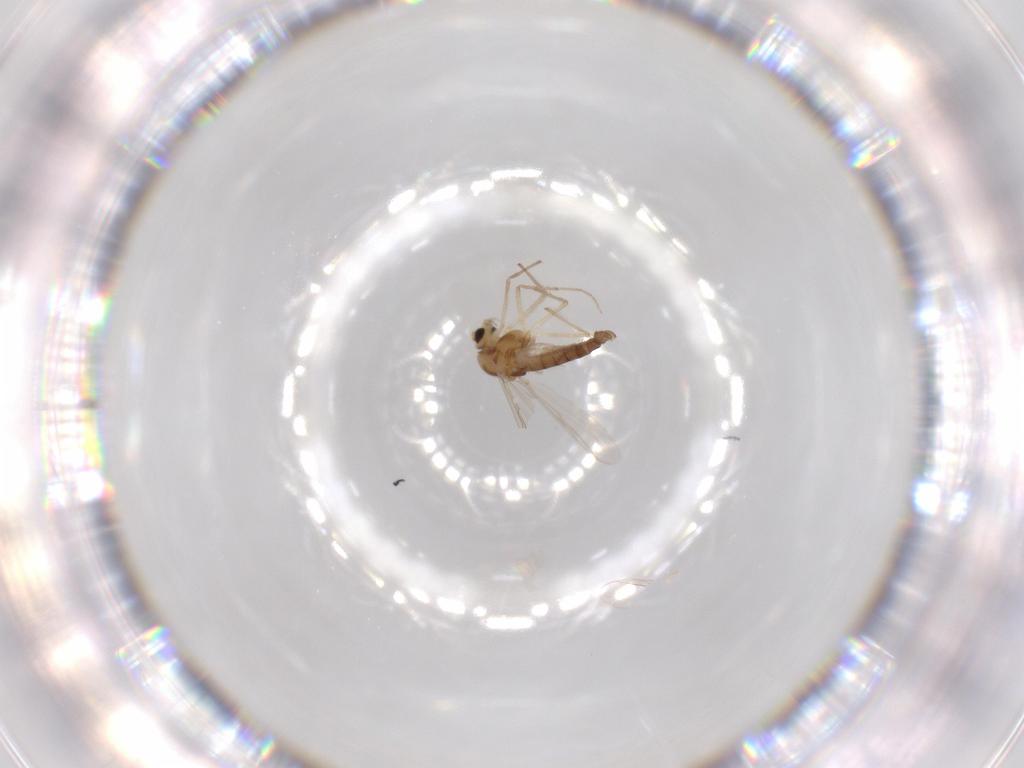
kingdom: Animalia
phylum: Arthropoda
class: Insecta
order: Diptera
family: Chironomidae
